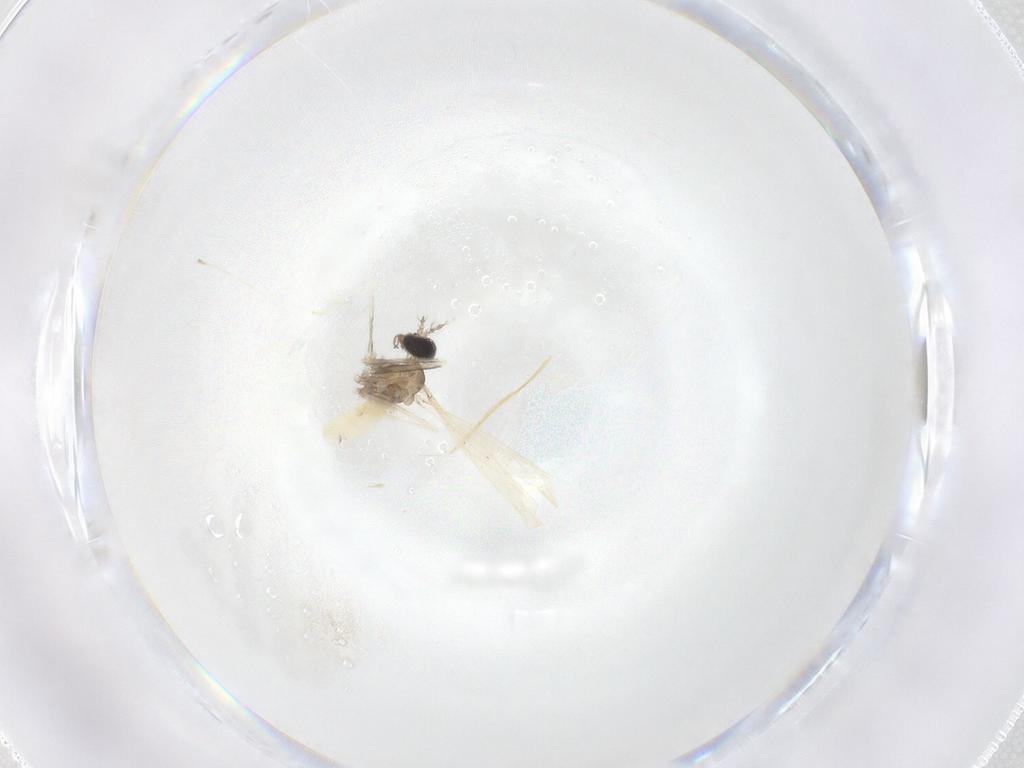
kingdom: Animalia
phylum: Arthropoda
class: Insecta
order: Diptera
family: Cecidomyiidae
